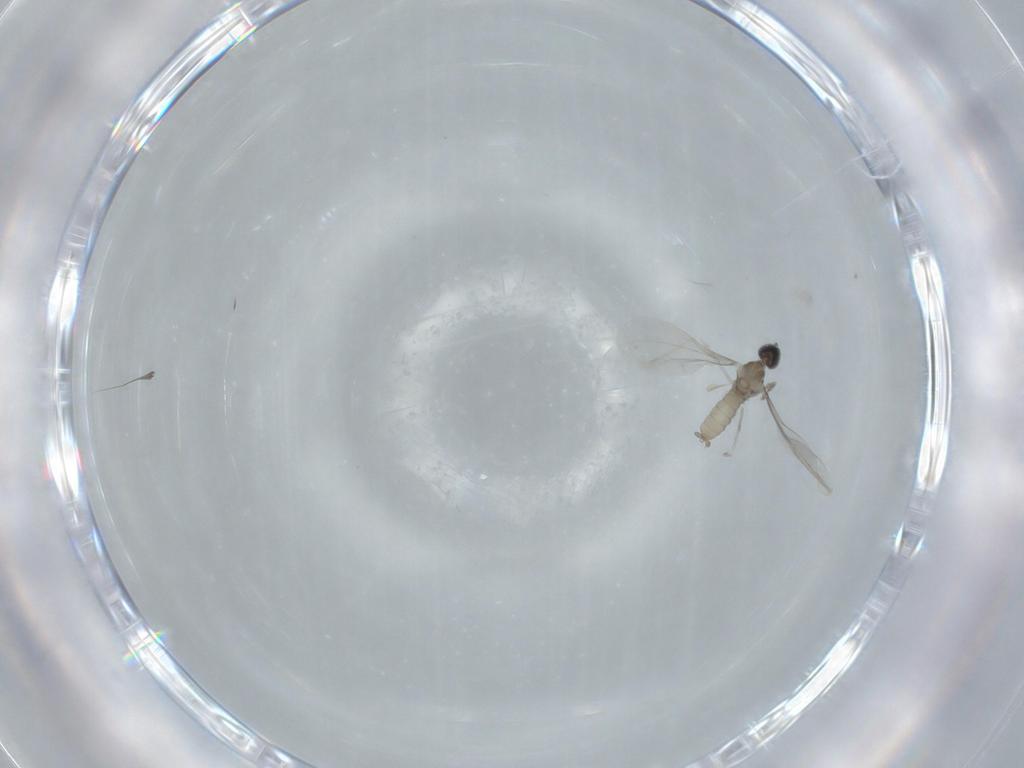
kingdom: Animalia
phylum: Arthropoda
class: Insecta
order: Diptera
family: Cecidomyiidae
